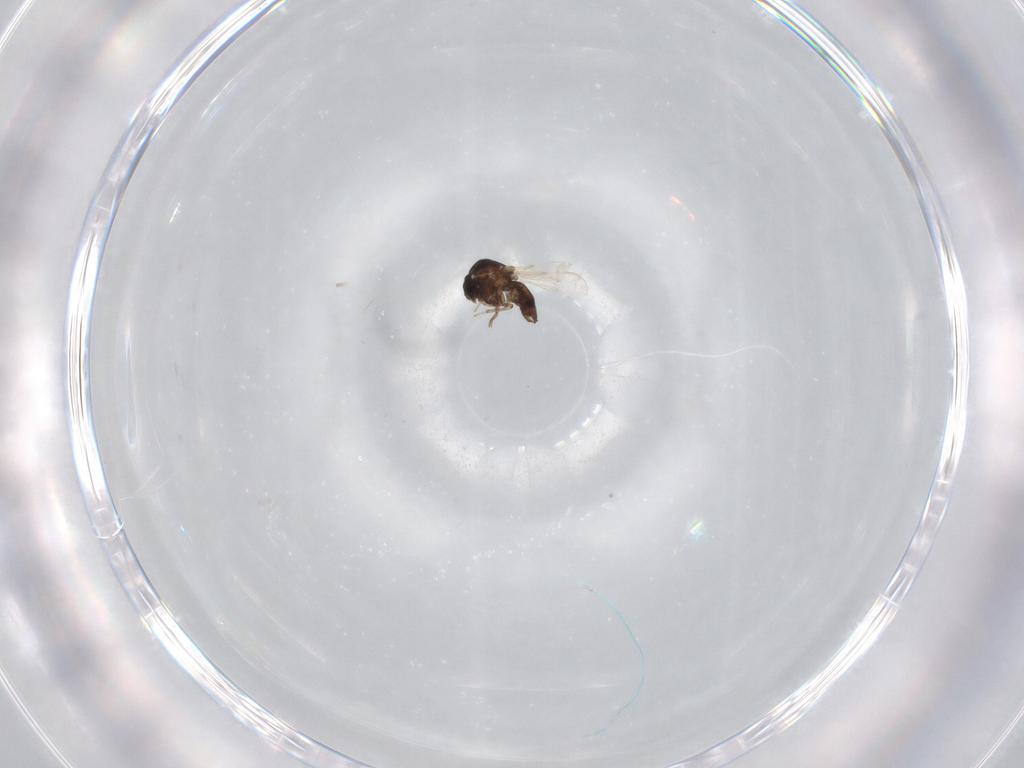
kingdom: Animalia
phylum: Arthropoda
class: Insecta
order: Diptera
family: Ceratopogonidae
